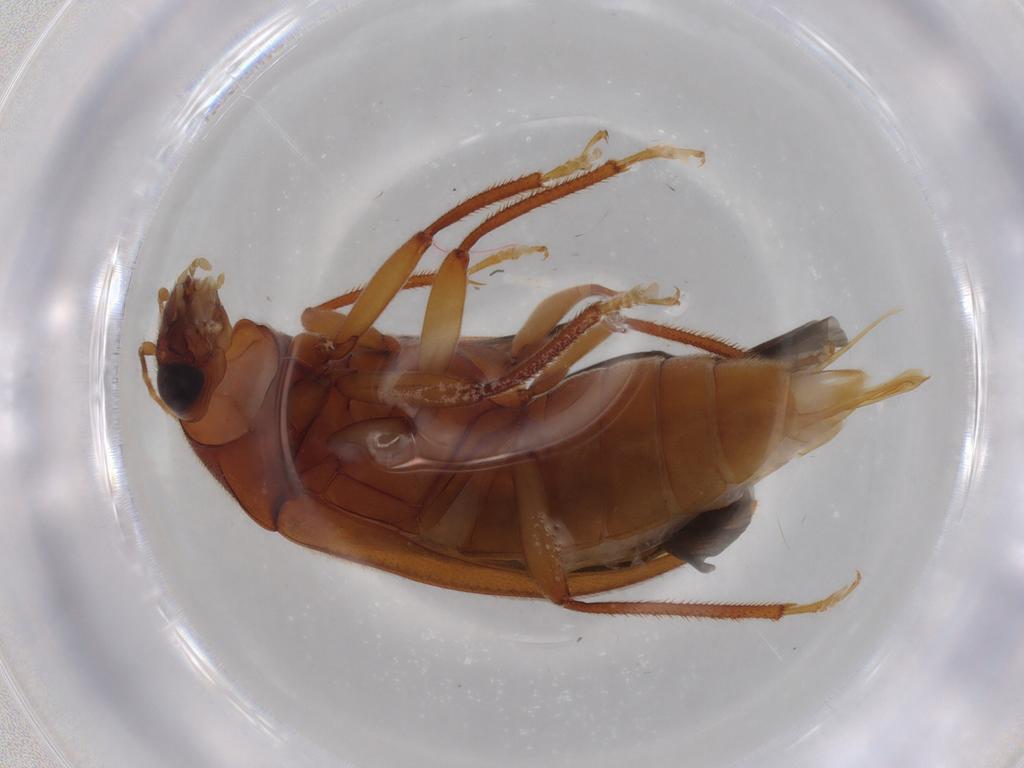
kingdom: Animalia
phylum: Arthropoda
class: Insecta
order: Coleoptera
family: Ptilodactylidae
